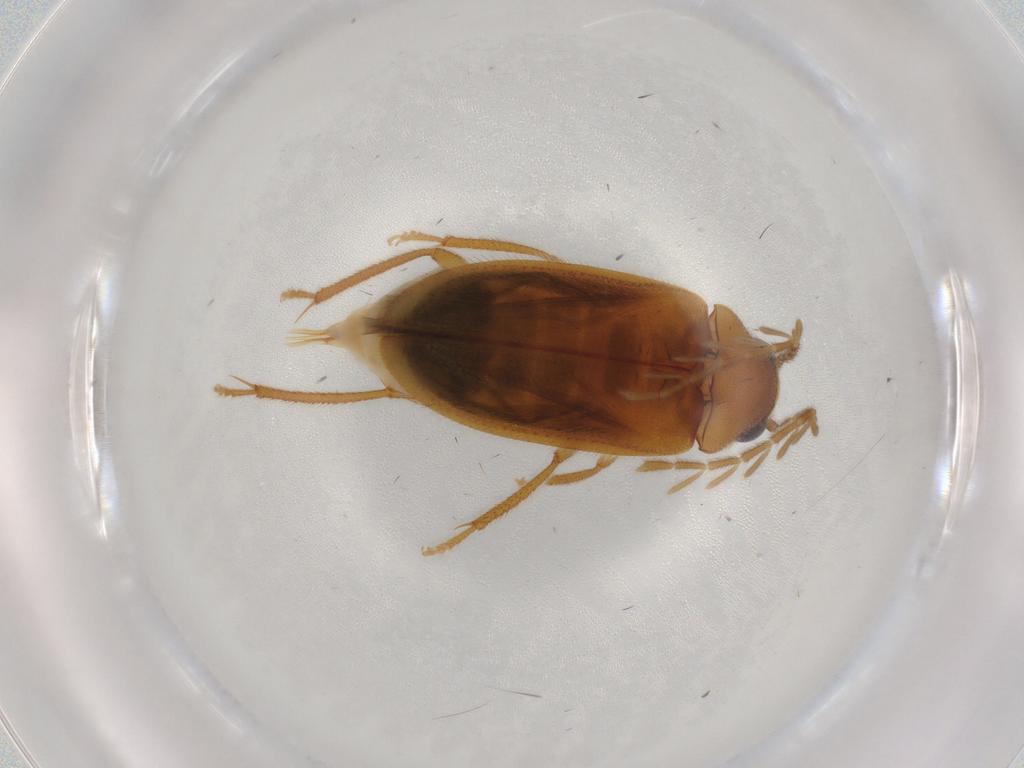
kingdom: Animalia
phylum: Arthropoda
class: Insecta
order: Coleoptera
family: Ptilodactylidae
